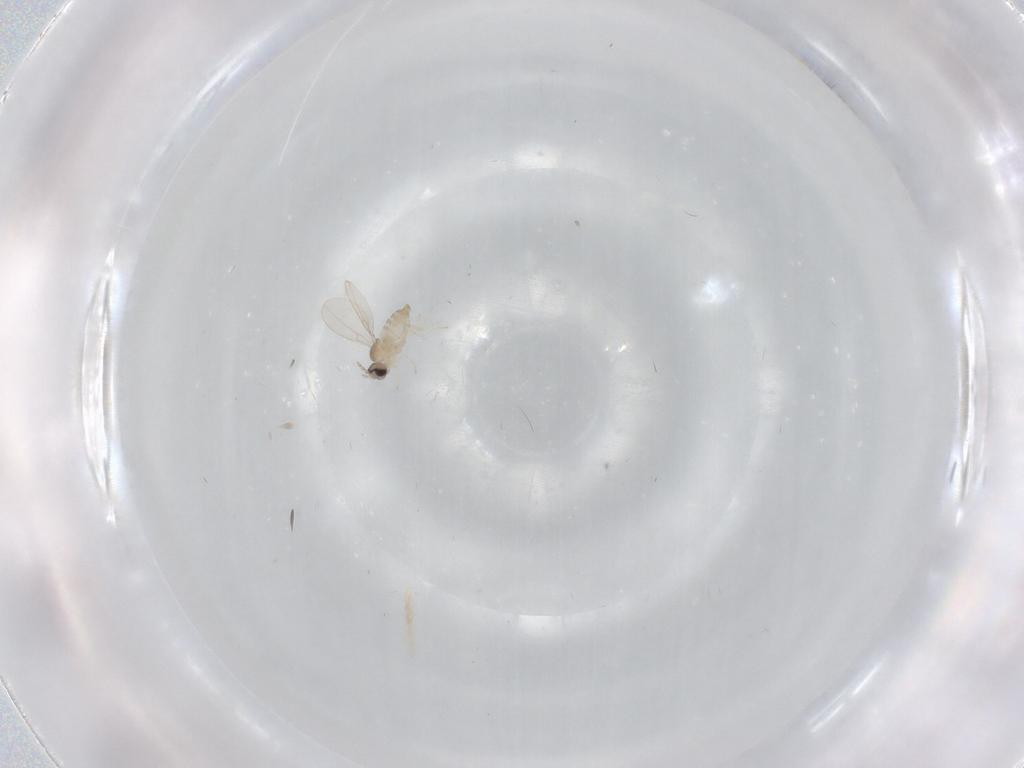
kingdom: Animalia
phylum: Arthropoda
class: Insecta
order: Diptera
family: Cecidomyiidae
